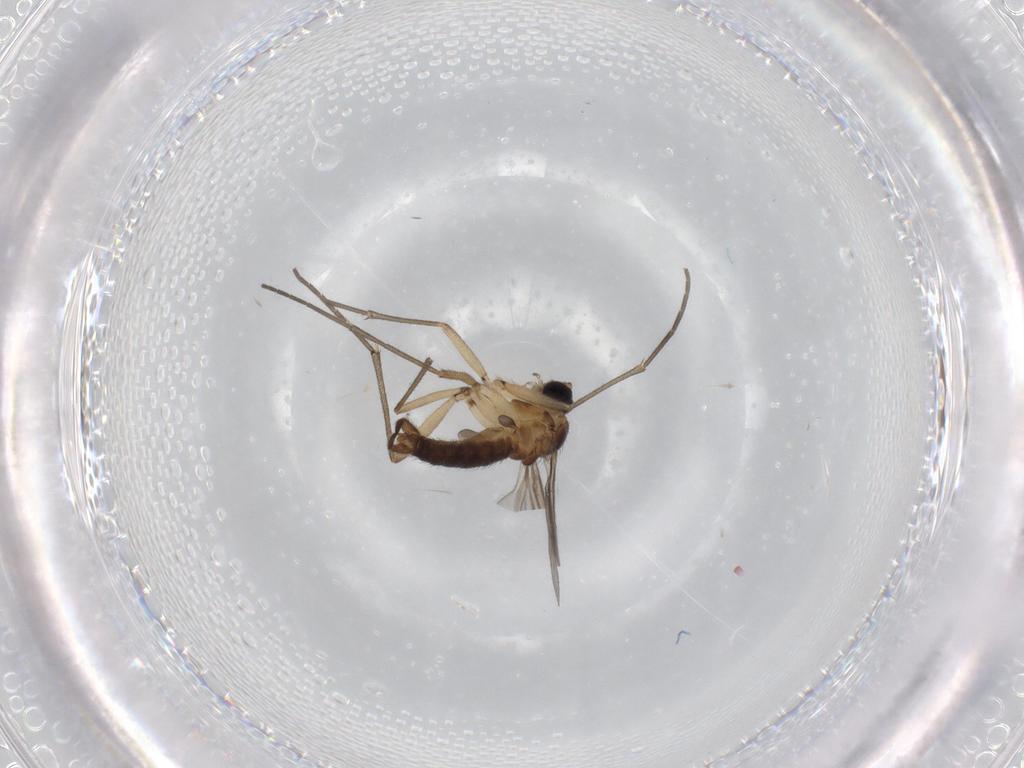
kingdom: Animalia
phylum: Arthropoda
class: Insecta
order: Diptera
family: Sciaridae
